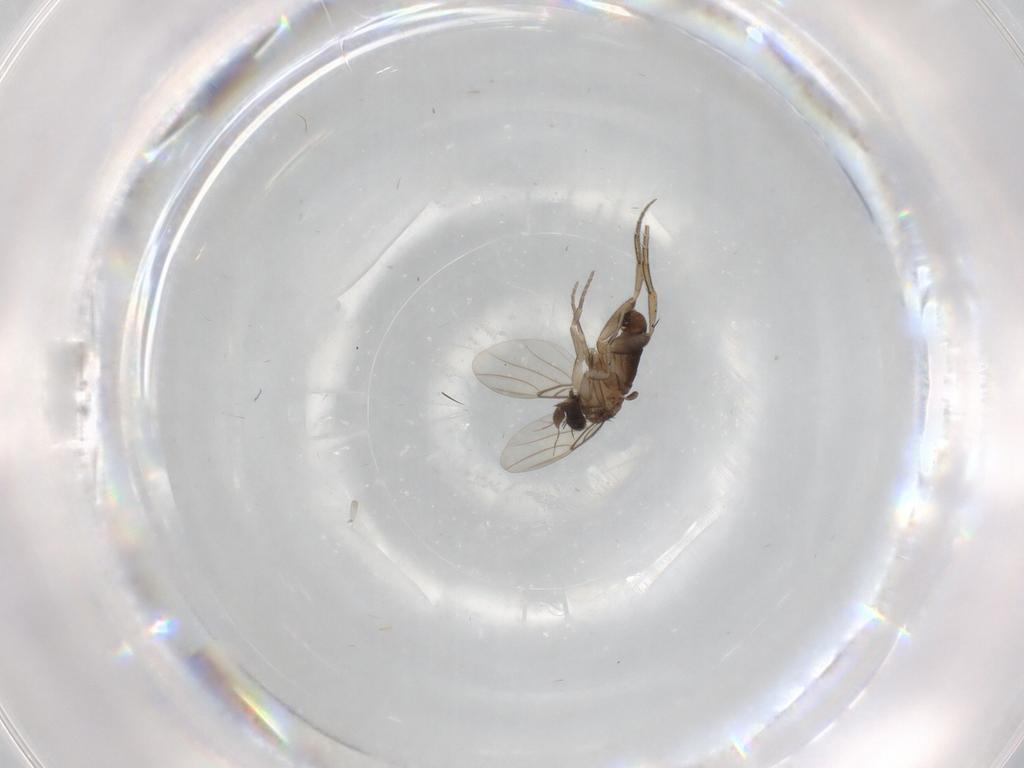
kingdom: Animalia
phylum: Arthropoda
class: Insecta
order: Diptera
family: Phoridae
